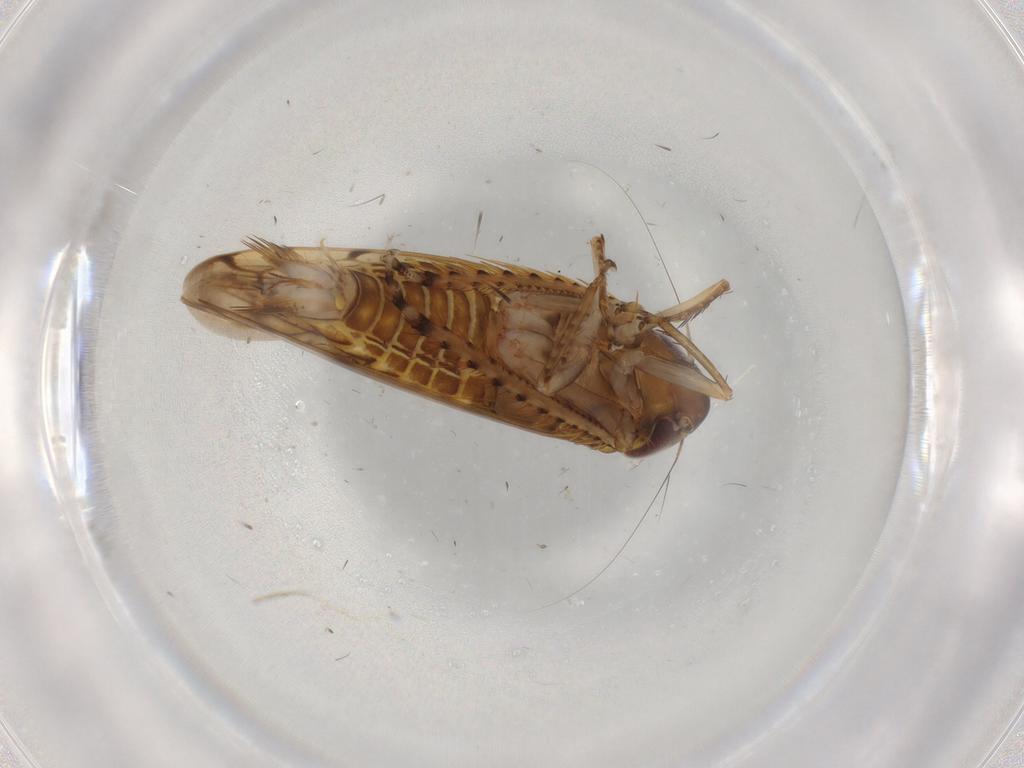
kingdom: Animalia
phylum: Arthropoda
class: Insecta
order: Hemiptera
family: Cicadellidae
